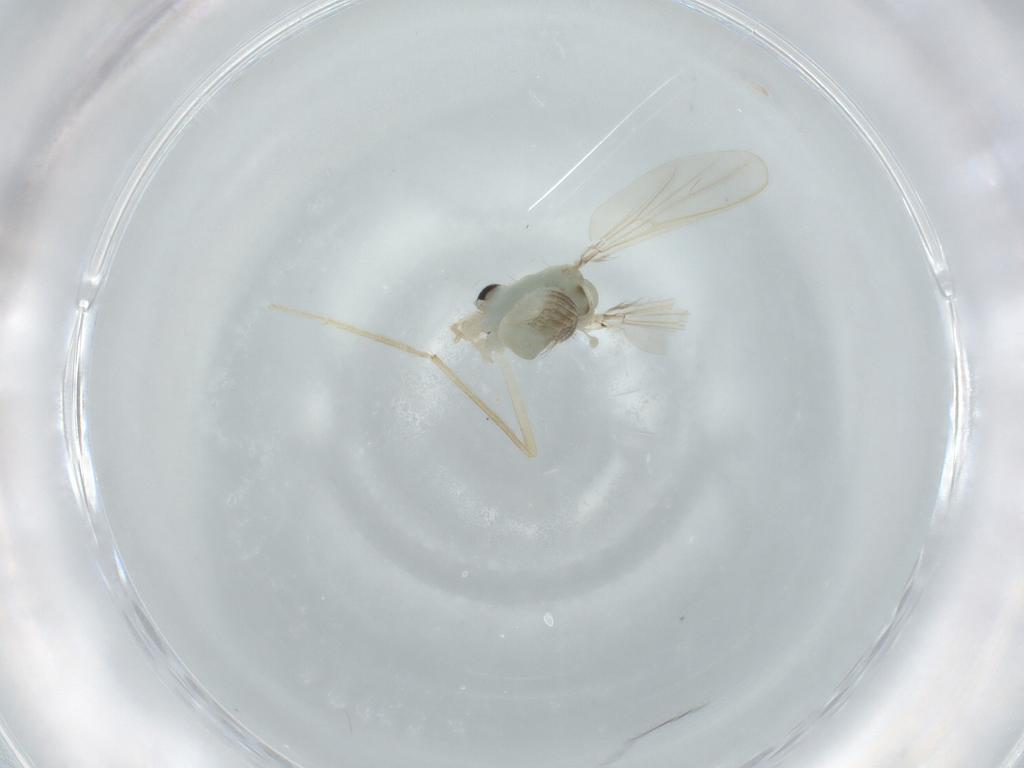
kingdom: Animalia
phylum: Arthropoda
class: Insecta
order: Diptera
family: Chironomidae
